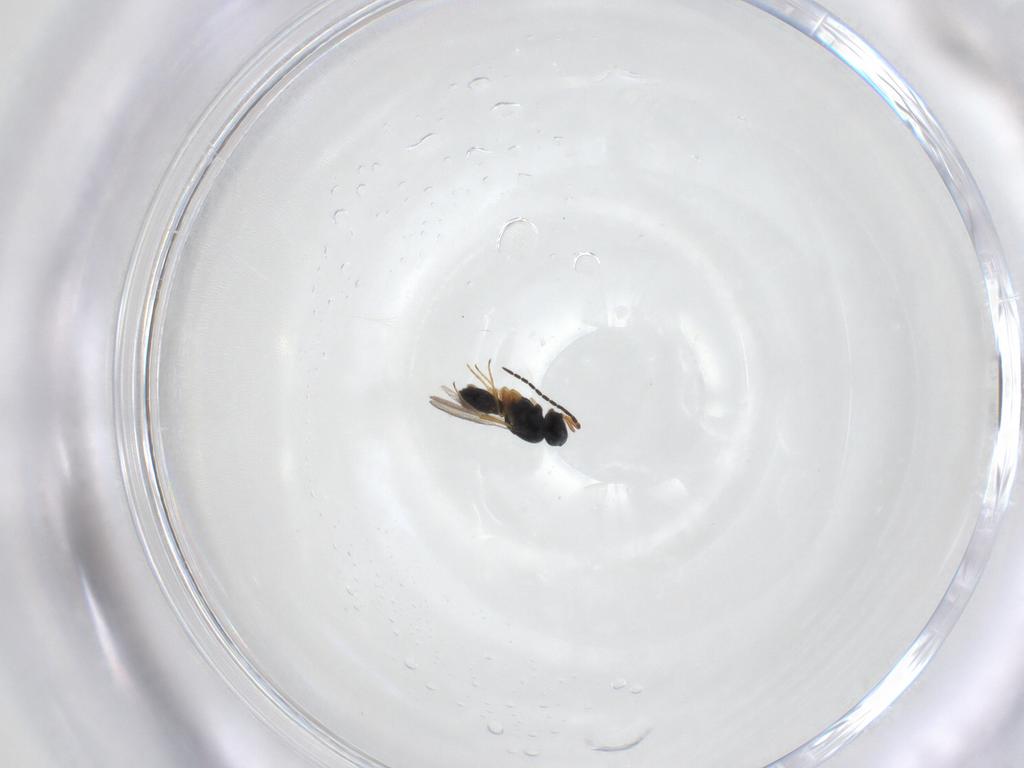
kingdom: Animalia
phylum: Arthropoda
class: Insecta
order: Hymenoptera
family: Scelionidae
